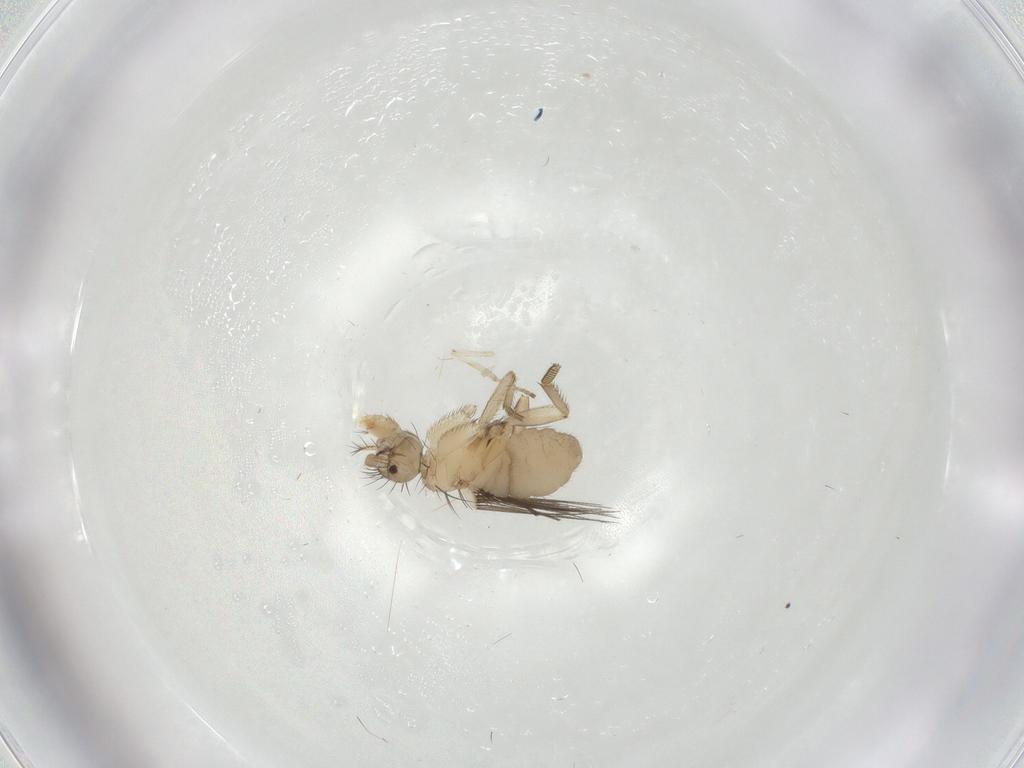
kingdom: Animalia
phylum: Arthropoda
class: Insecta
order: Diptera
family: Phoridae
